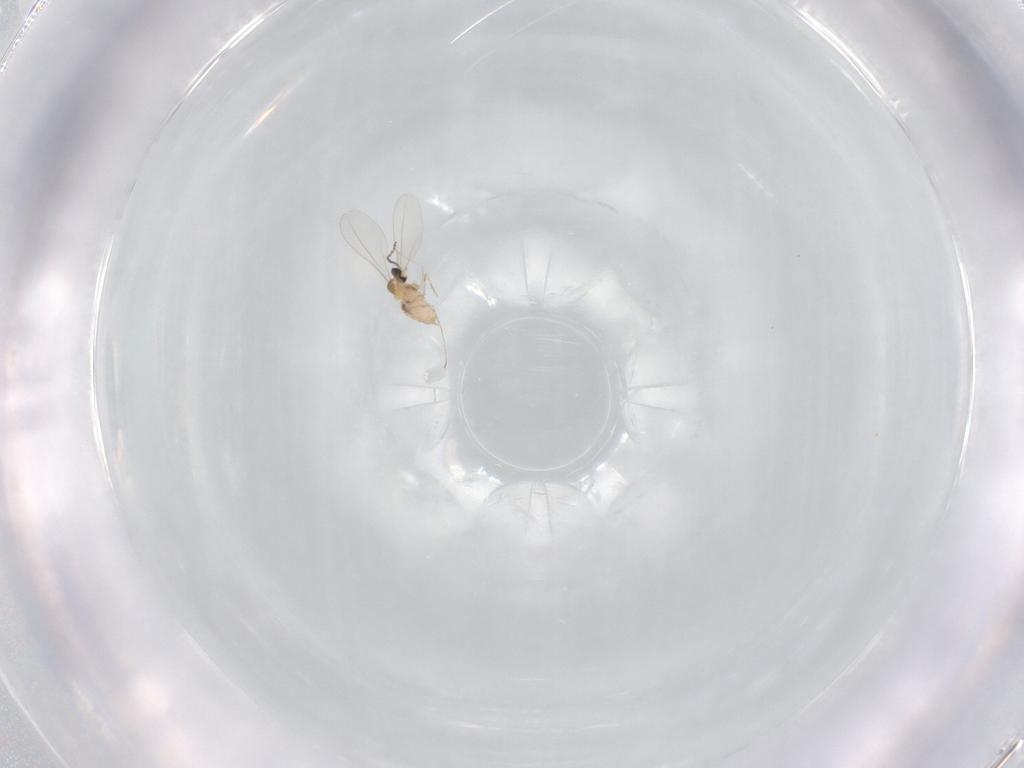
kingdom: Animalia
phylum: Arthropoda
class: Insecta
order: Diptera
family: Cecidomyiidae
